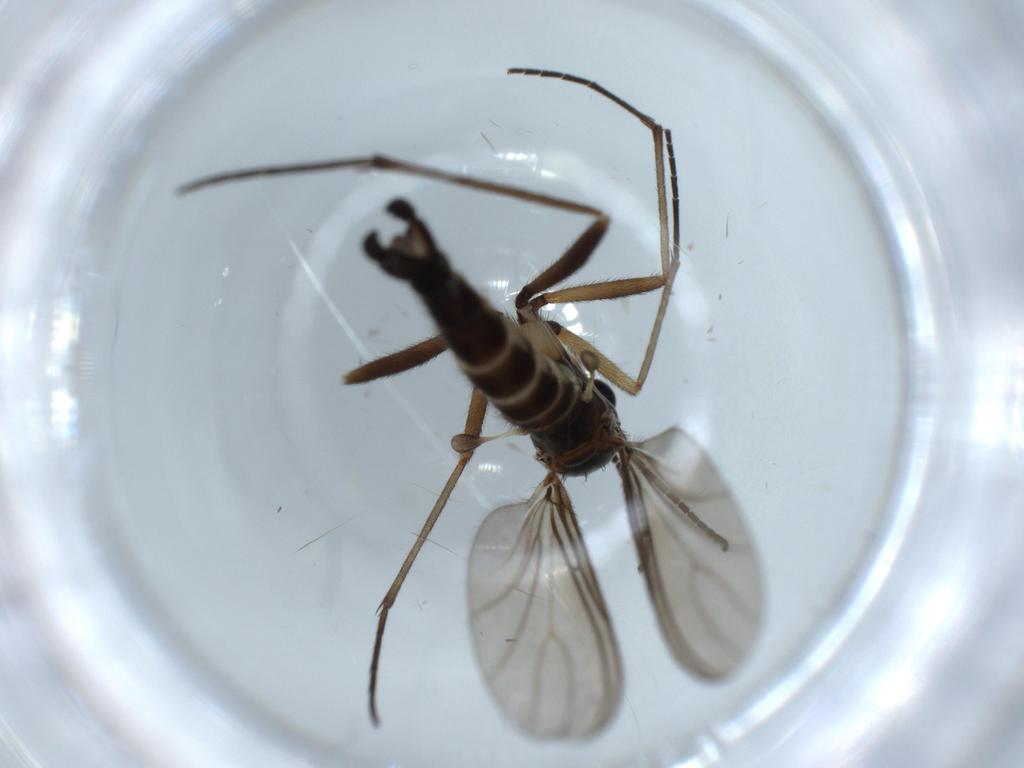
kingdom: Animalia
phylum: Arthropoda
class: Insecta
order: Diptera
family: Sciaridae
